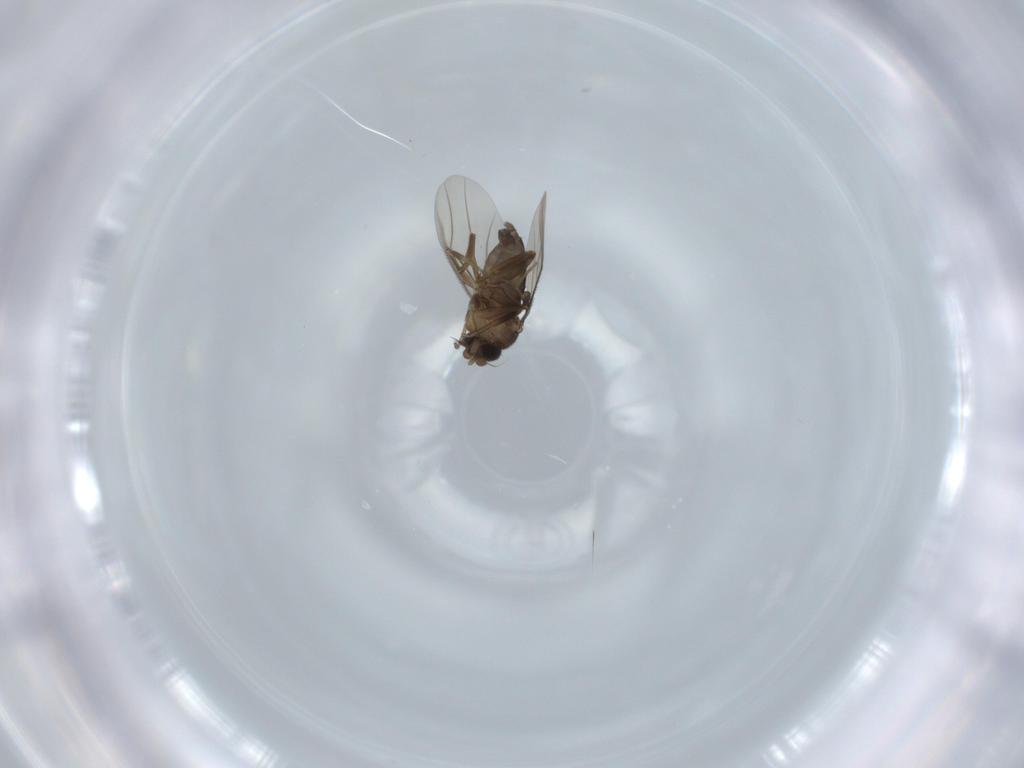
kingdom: Animalia
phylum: Arthropoda
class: Insecta
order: Diptera
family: Phoridae
